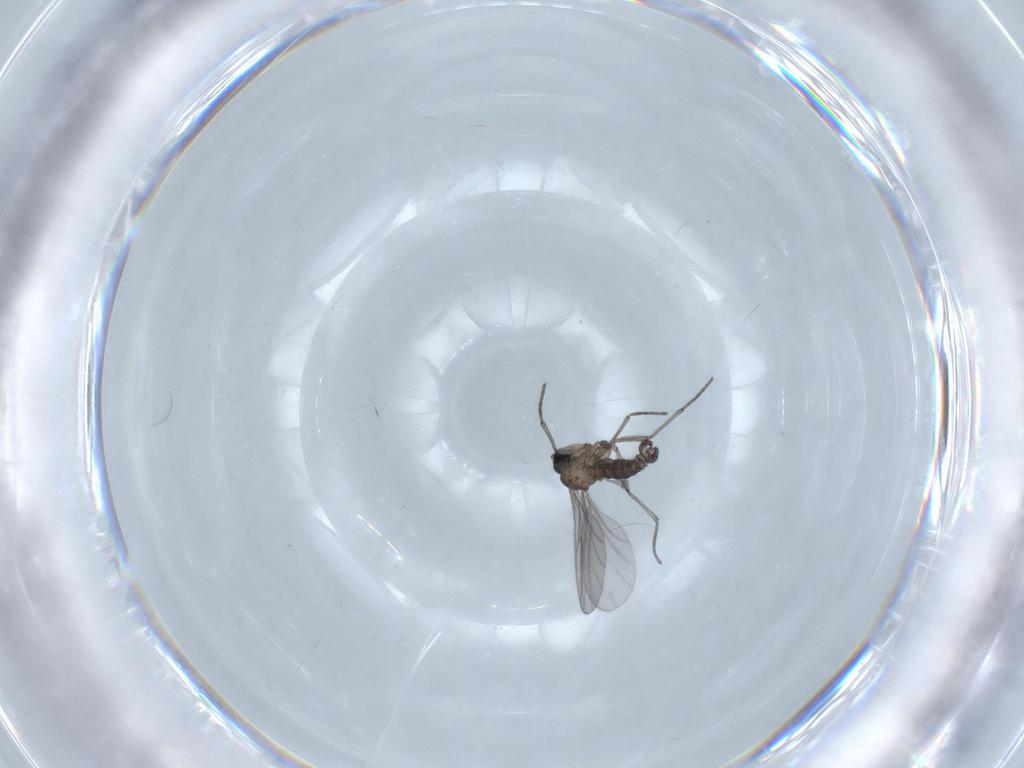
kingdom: Animalia
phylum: Arthropoda
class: Insecta
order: Diptera
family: Sciaridae
